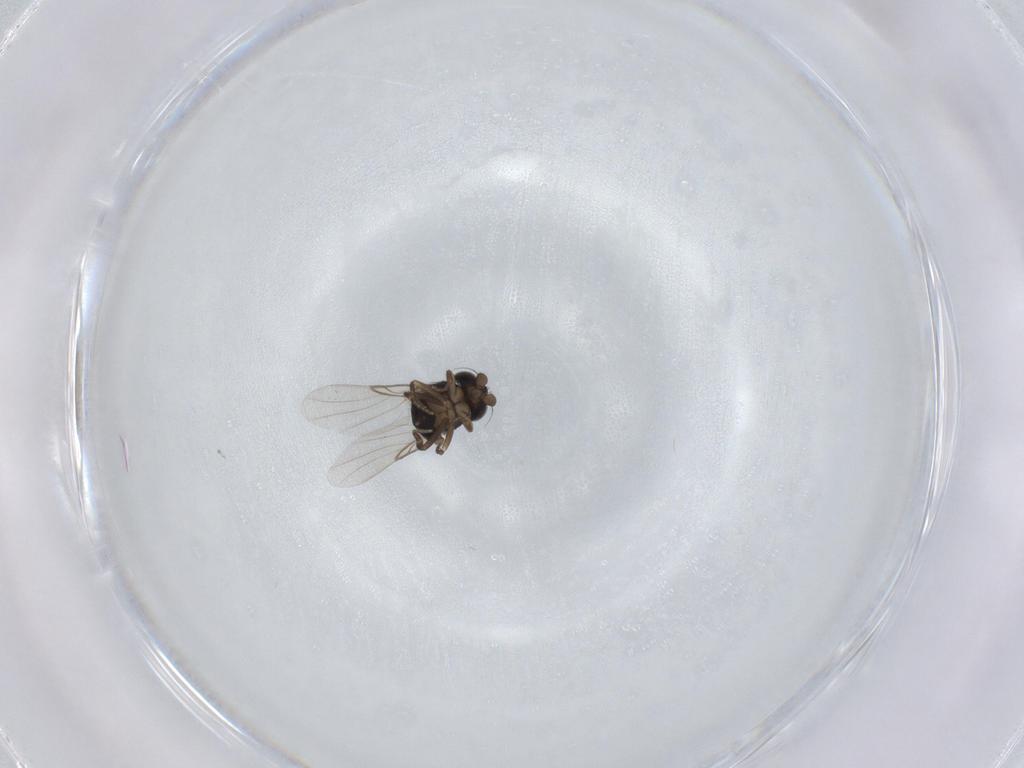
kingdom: Animalia
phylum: Arthropoda
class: Insecta
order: Diptera
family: Phoridae
